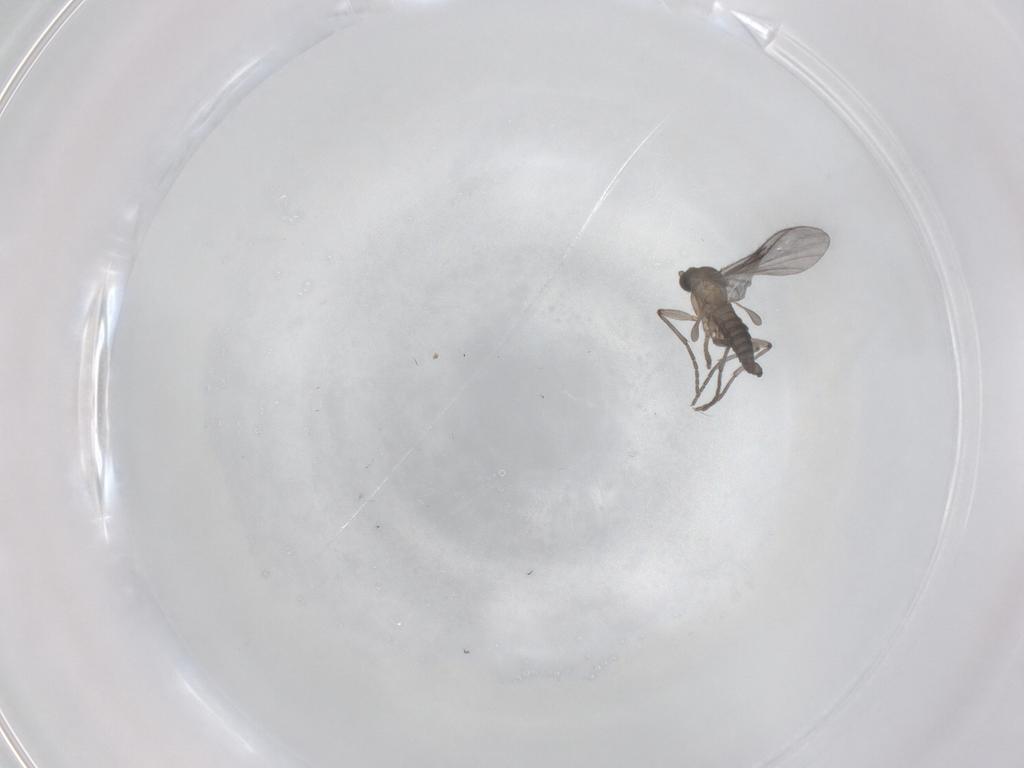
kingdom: Animalia
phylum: Arthropoda
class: Insecta
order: Diptera
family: Sciaridae
